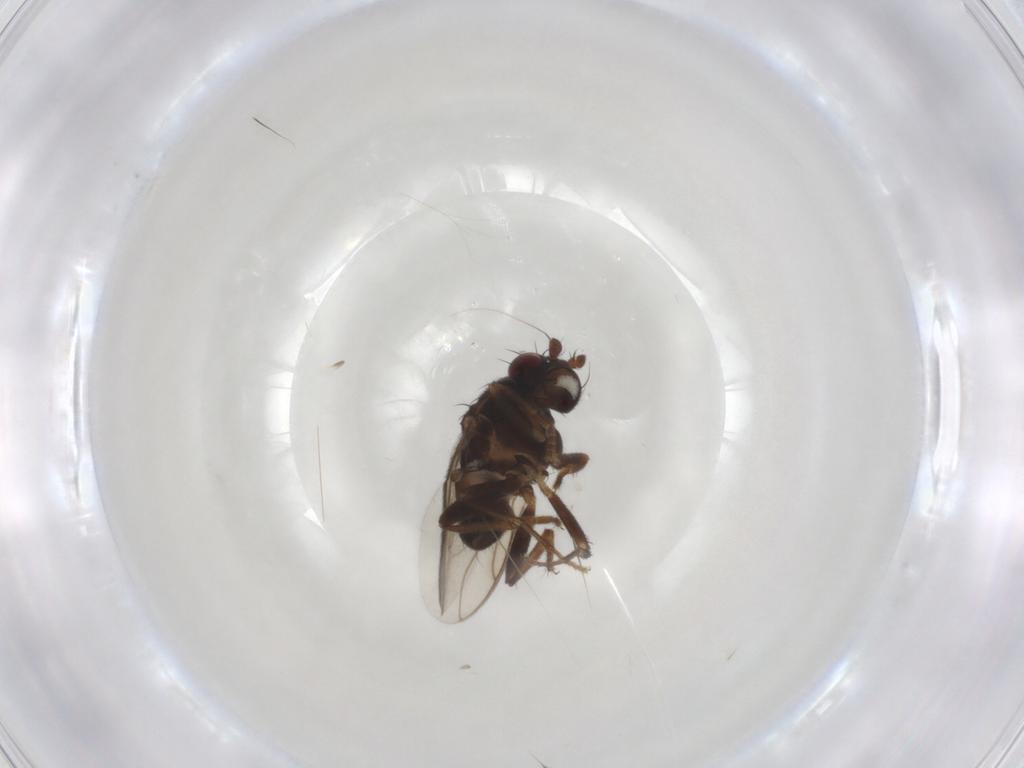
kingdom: Animalia
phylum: Arthropoda
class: Insecta
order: Diptera
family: Sphaeroceridae
